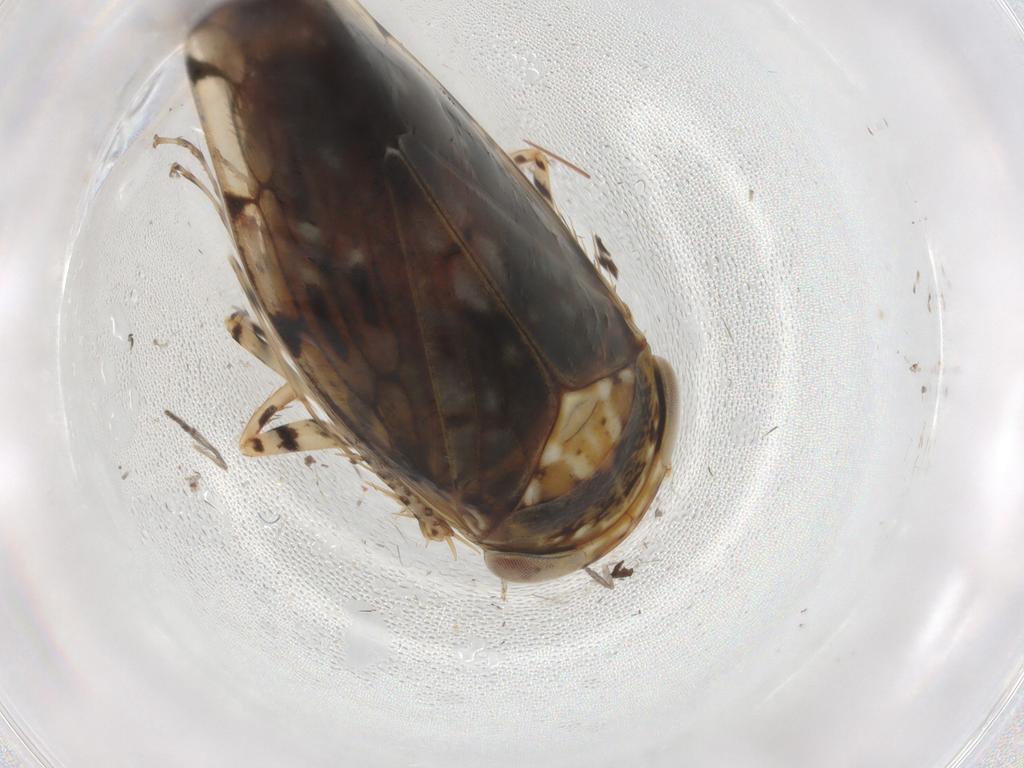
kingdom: Animalia
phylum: Arthropoda
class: Insecta
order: Hemiptera
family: Cicadellidae
